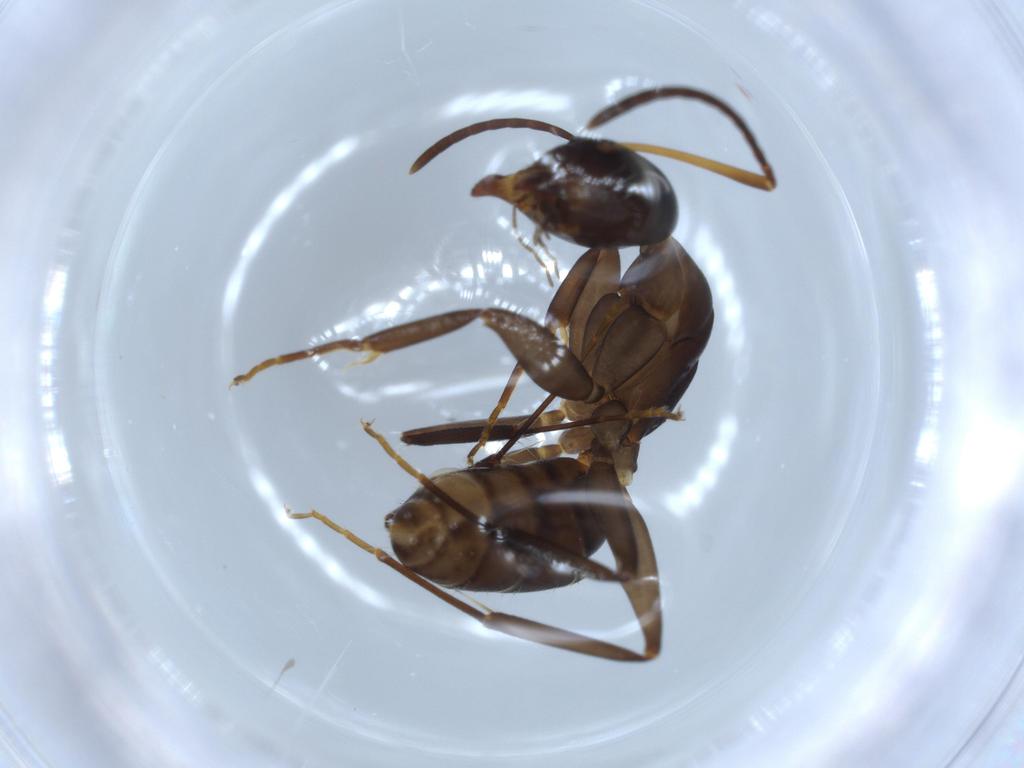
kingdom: Animalia
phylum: Arthropoda
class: Insecta
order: Hymenoptera
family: Formicidae
